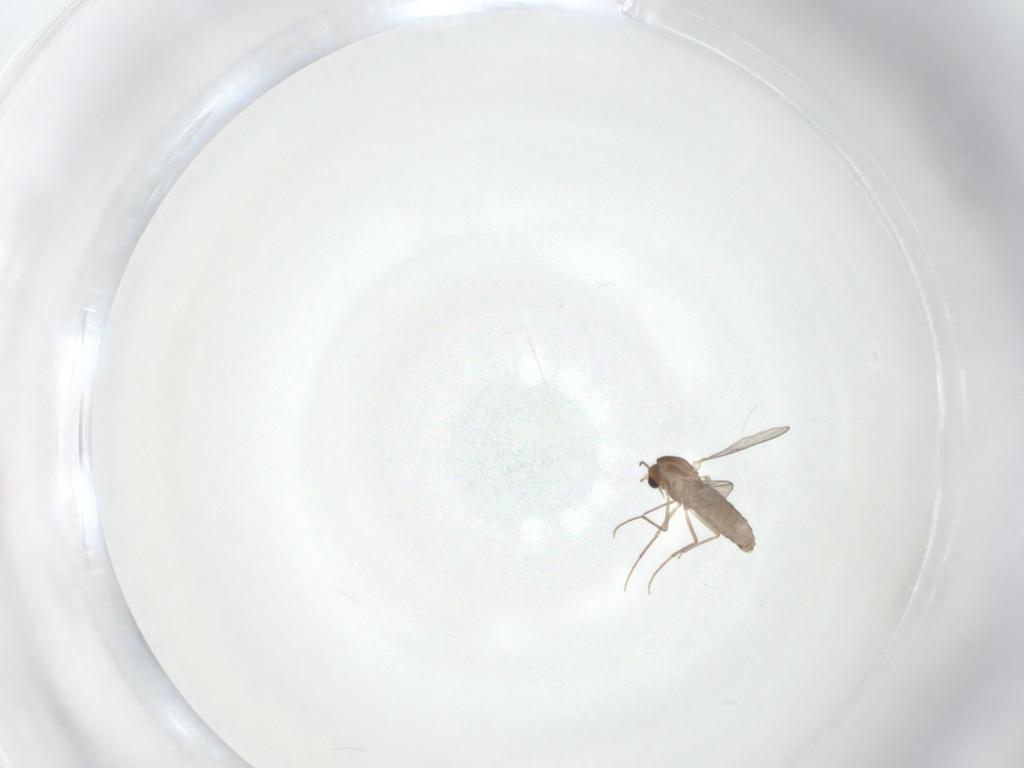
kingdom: Animalia
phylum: Arthropoda
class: Insecta
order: Diptera
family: Chironomidae
